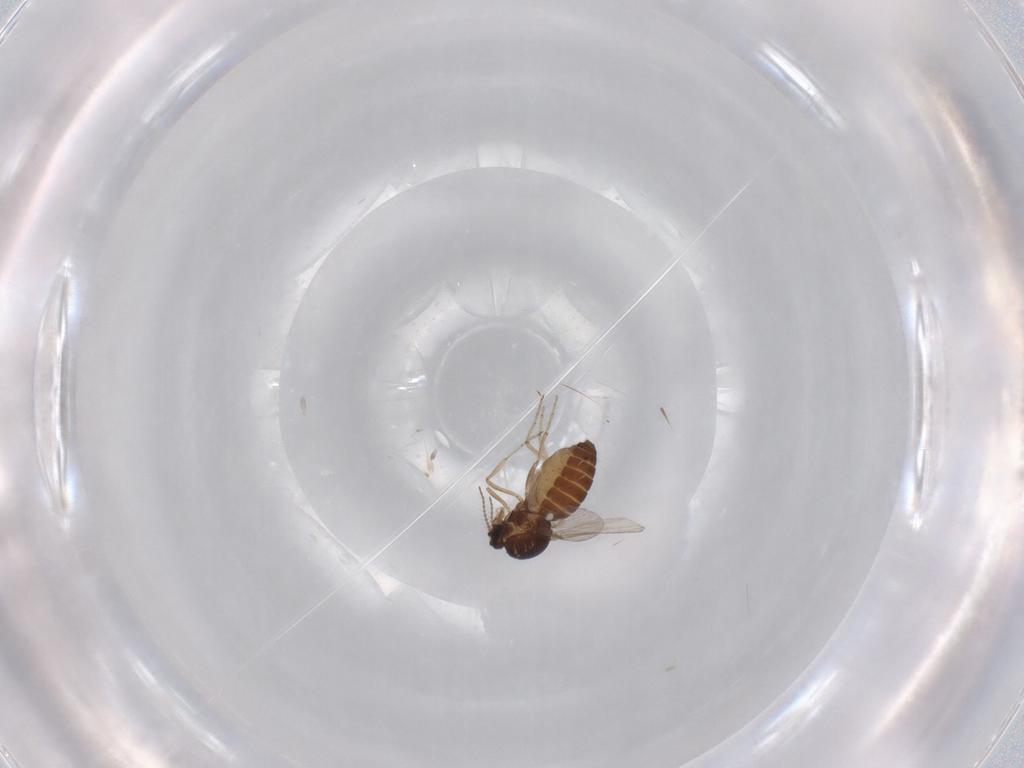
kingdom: Animalia
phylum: Arthropoda
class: Insecta
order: Diptera
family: Ceratopogonidae
